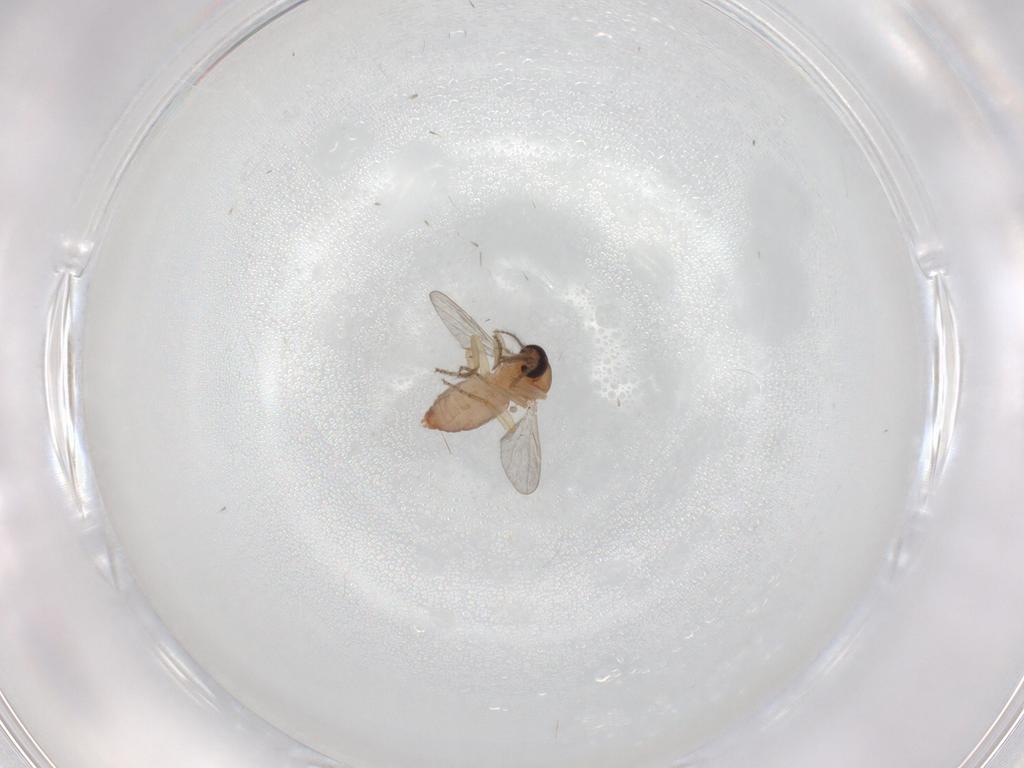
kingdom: Animalia
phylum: Arthropoda
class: Insecta
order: Diptera
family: Ceratopogonidae
